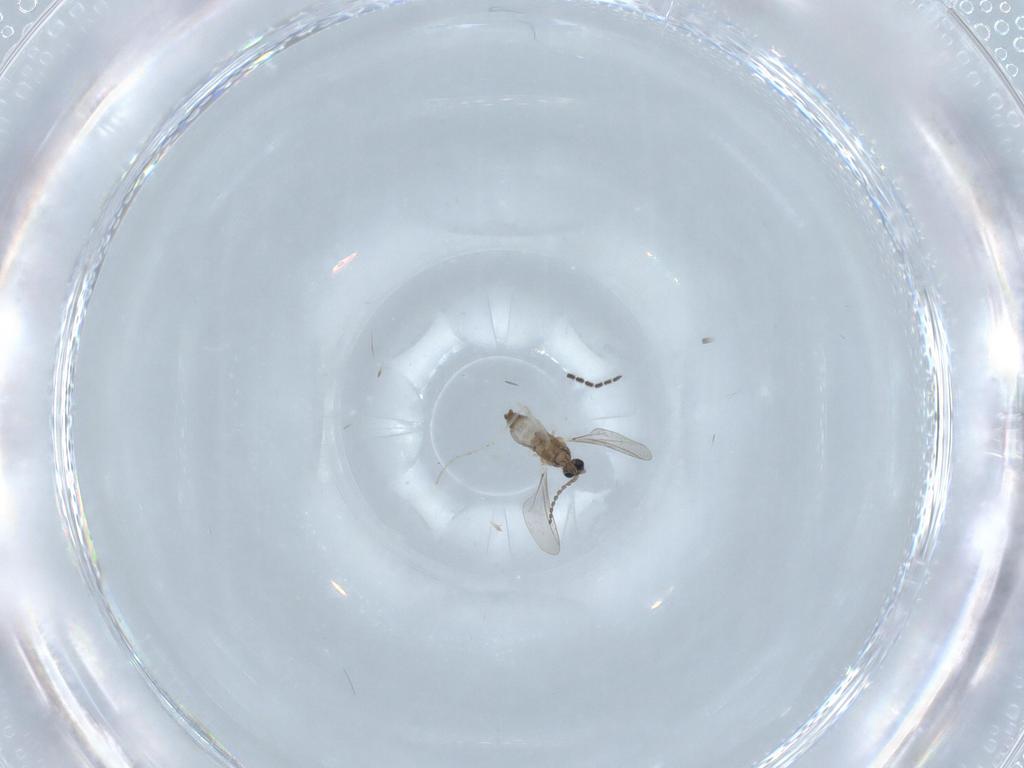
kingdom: Animalia
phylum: Arthropoda
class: Insecta
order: Diptera
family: Cecidomyiidae
